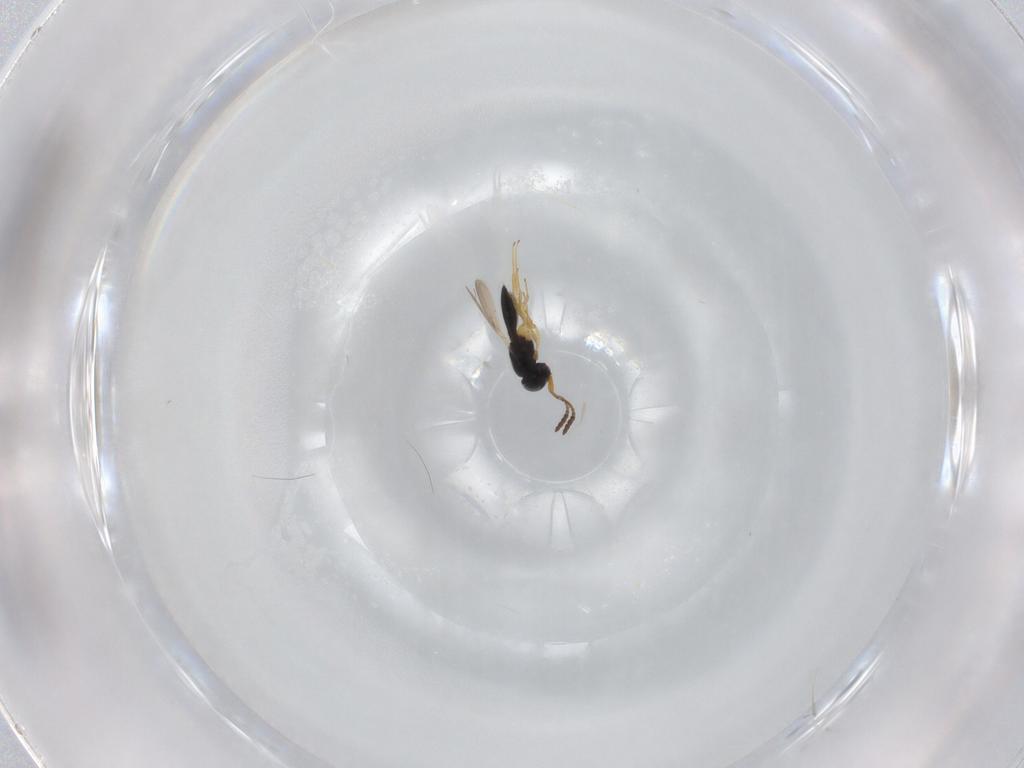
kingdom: Animalia
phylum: Arthropoda
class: Insecta
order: Hymenoptera
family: Scelionidae
